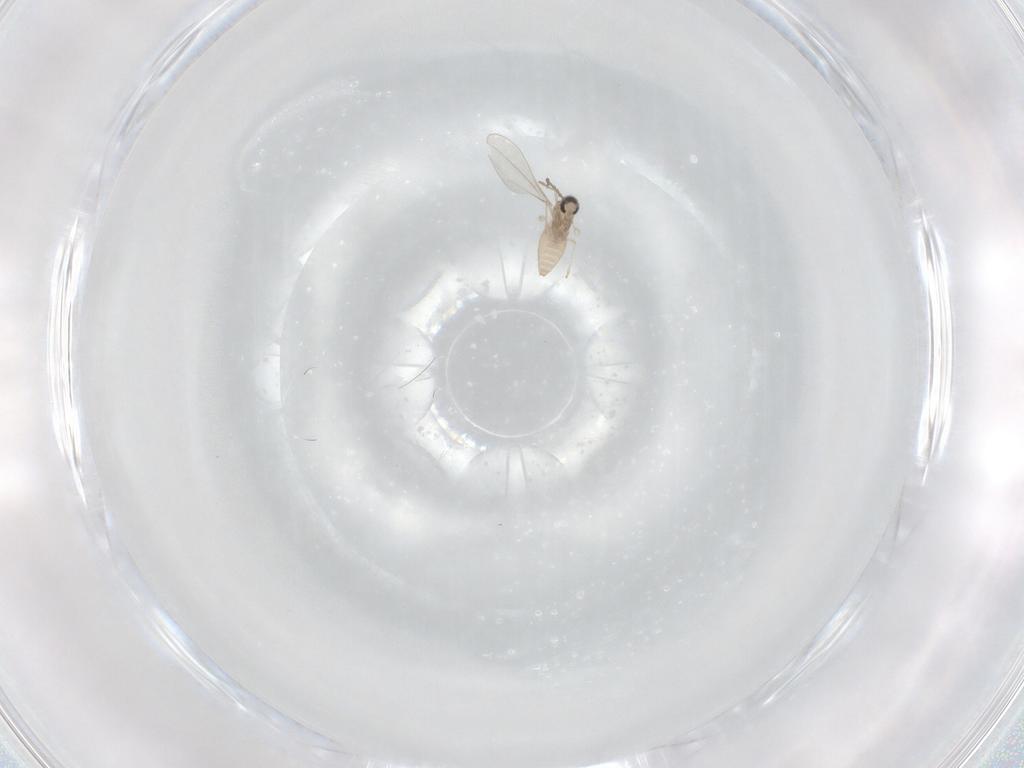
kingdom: Animalia
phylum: Arthropoda
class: Insecta
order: Diptera
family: Cecidomyiidae
